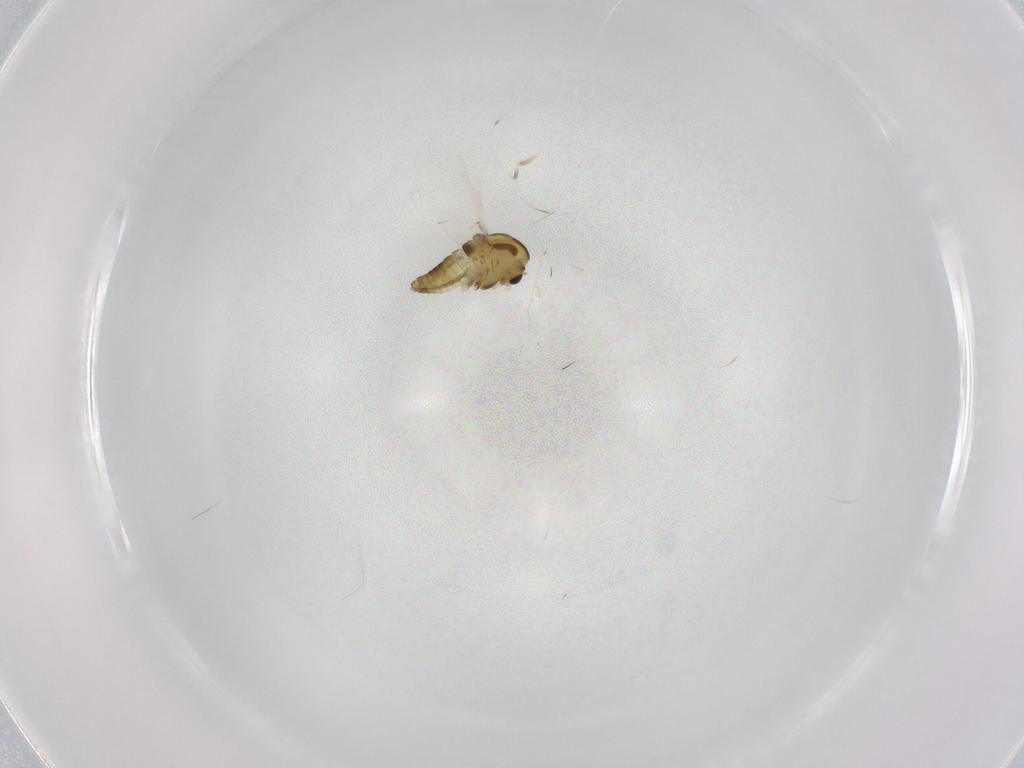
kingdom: Animalia
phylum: Arthropoda
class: Insecta
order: Diptera
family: Chironomidae
